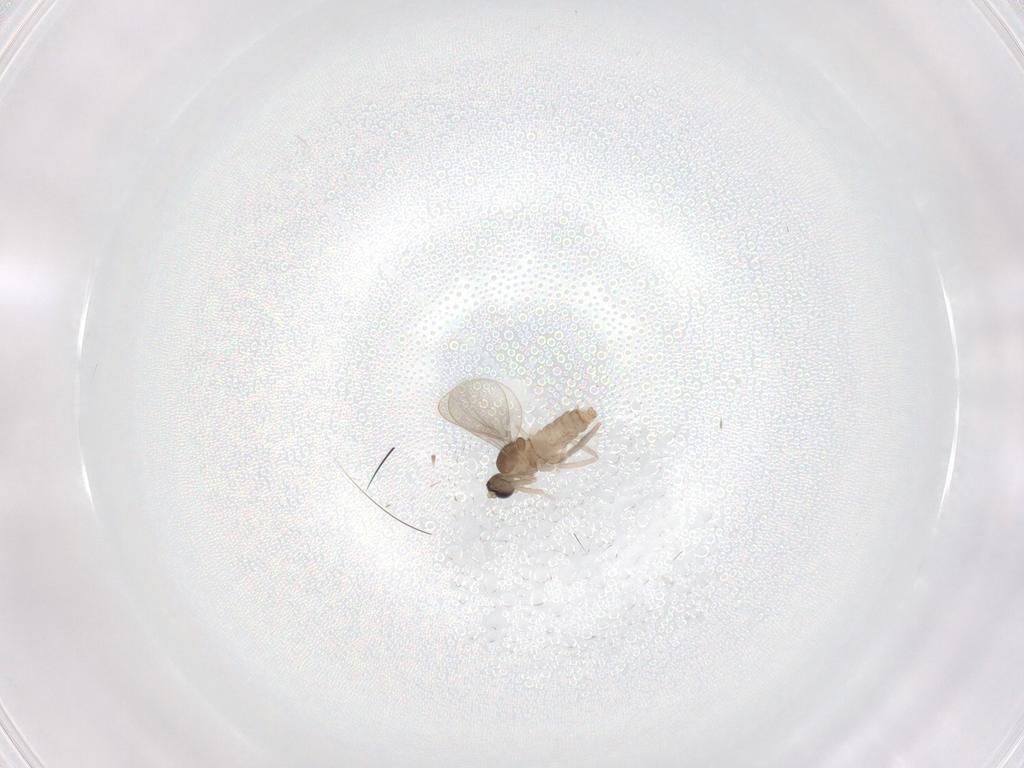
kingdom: Animalia
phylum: Arthropoda
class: Insecta
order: Diptera
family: Cecidomyiidae
